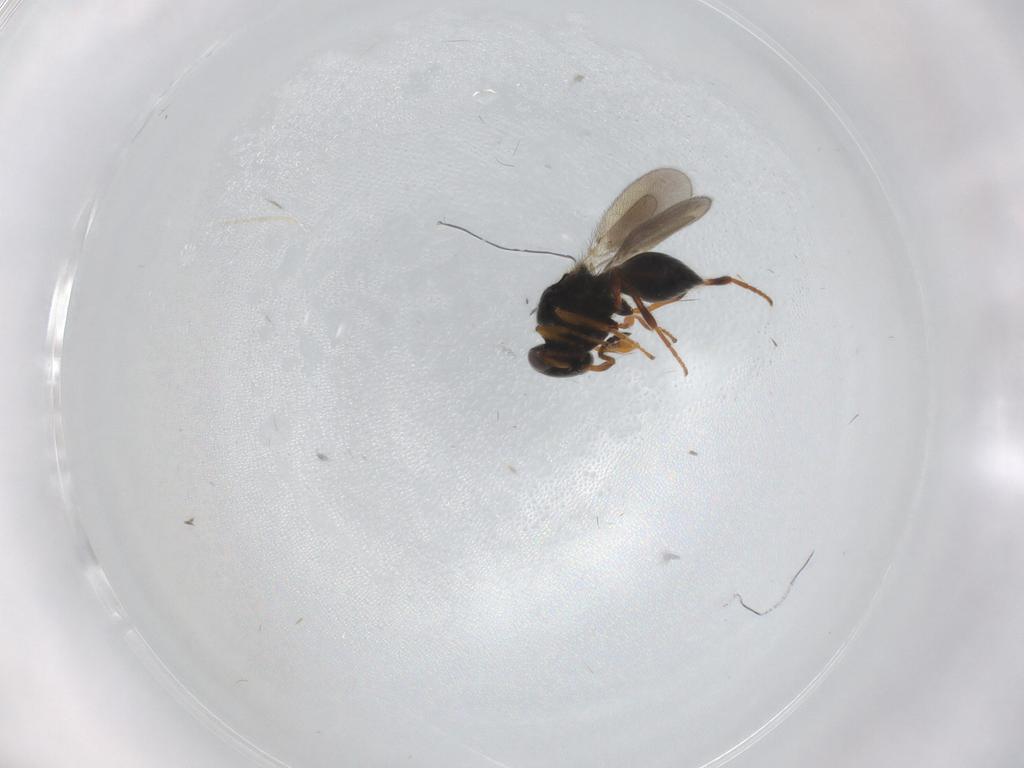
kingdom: Animalia
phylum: Arthropoda
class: Insecta
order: Hymenoptera
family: Platygastridae
